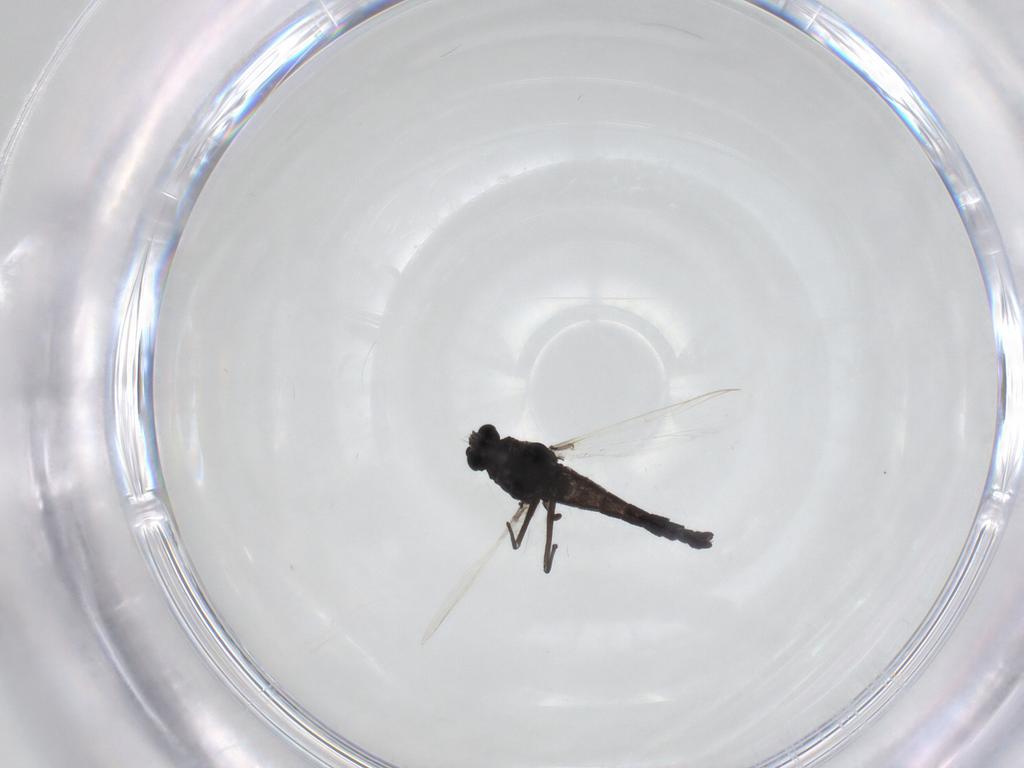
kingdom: Animalia
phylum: Arthropoda
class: Insecta
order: Diptera
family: Chironomidae
